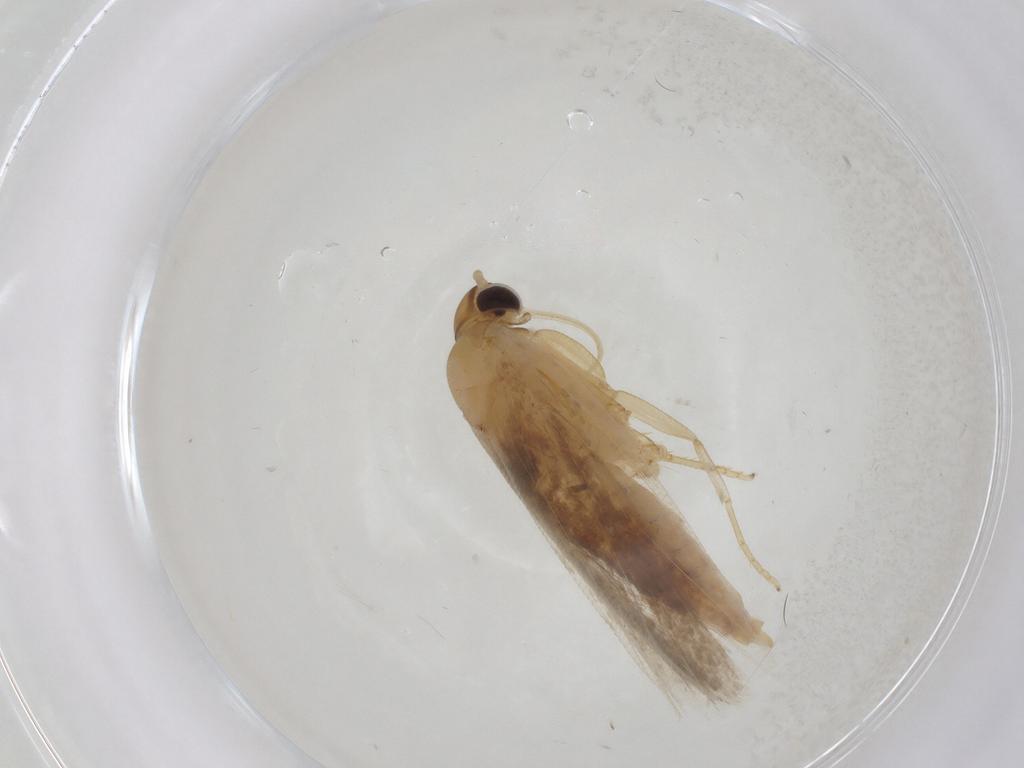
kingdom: Animalia
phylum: Arthropoda
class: Insecta
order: Lepidoptera
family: Gelechiidae
